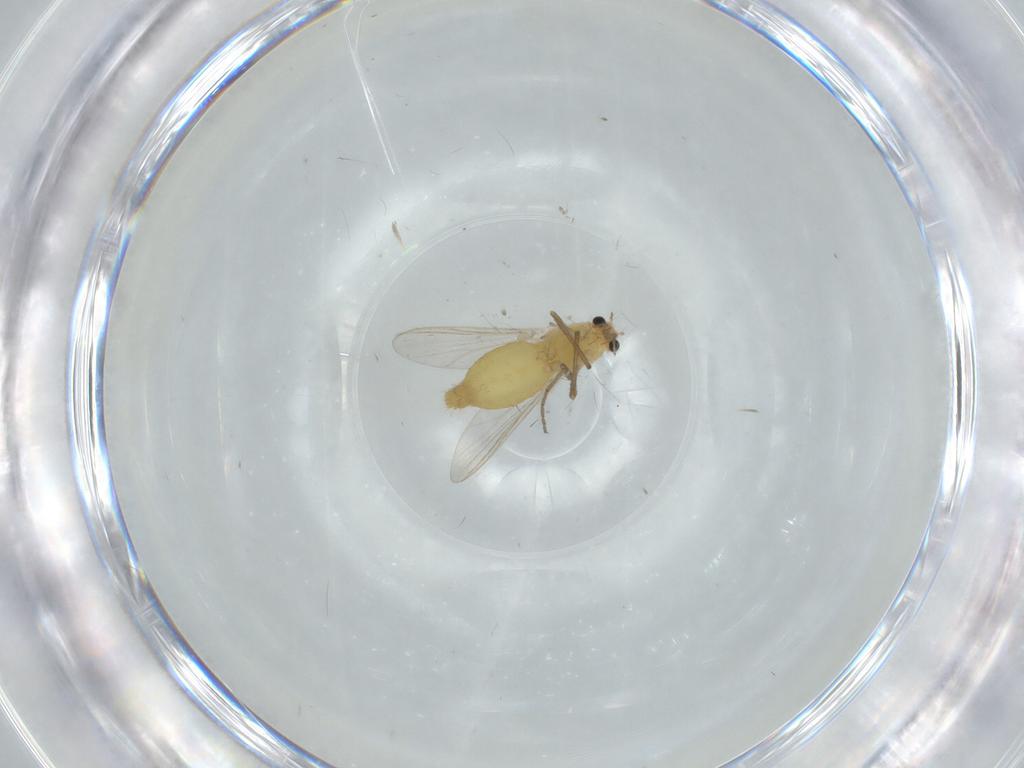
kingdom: Animalia
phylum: Arthropoda
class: Insecta
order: Diptera
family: Chironomidae
